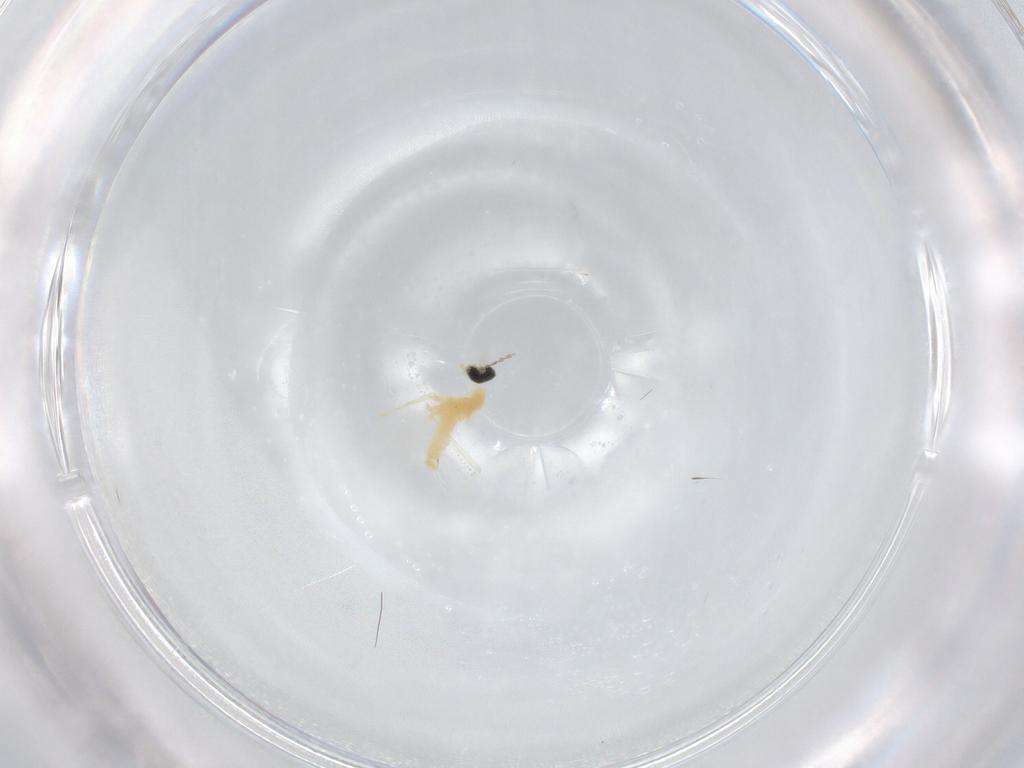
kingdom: Animalia
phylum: Arthropoda
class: Insecta
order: Diptera
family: Cecidomyiidae
